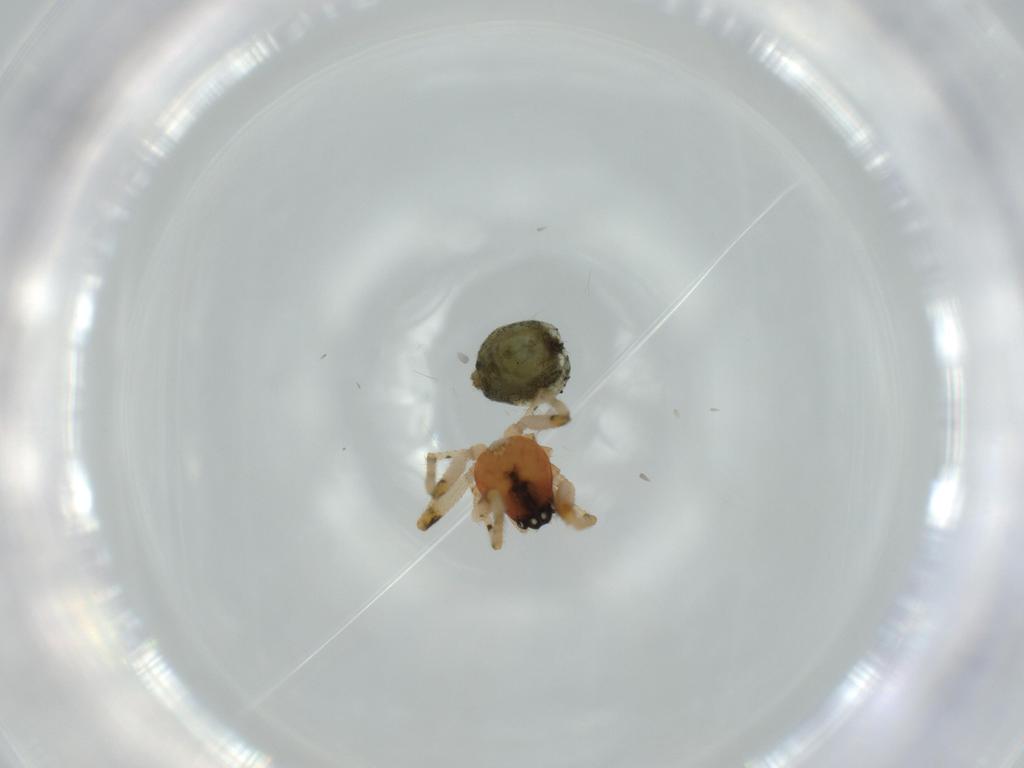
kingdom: Animalia
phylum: Arthropoda
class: Arachnida
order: Araneae
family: Theridiidae
